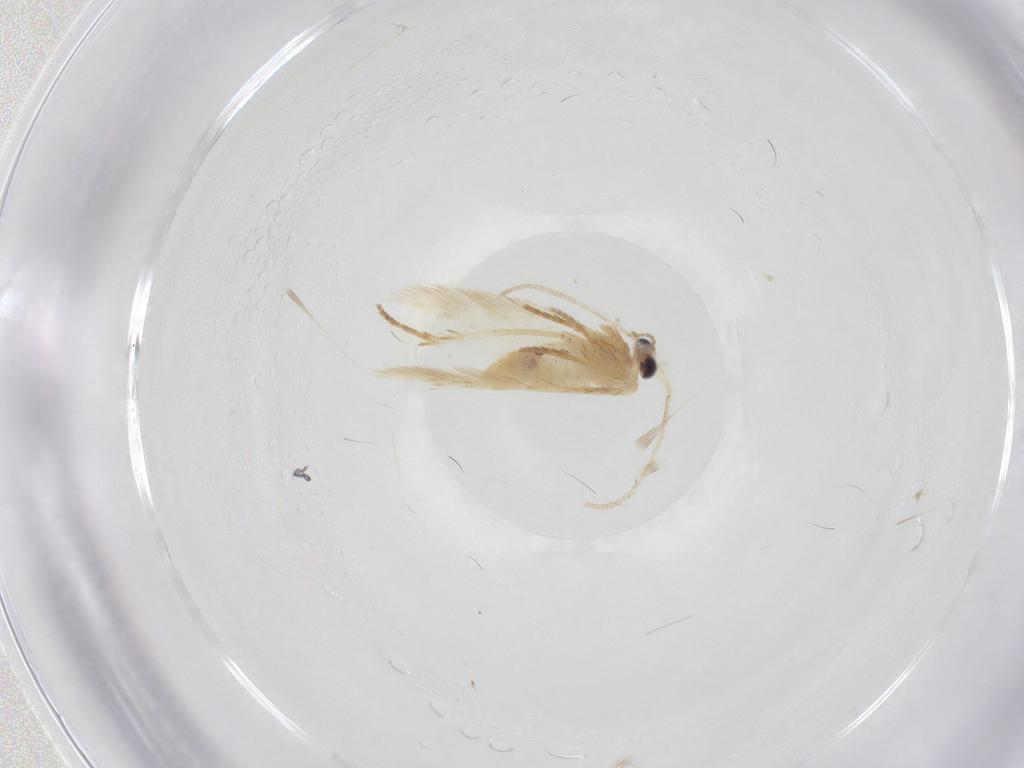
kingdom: Animalia
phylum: Arthropoda
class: Insecta
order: Lepidoptera
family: Nepticulidae
